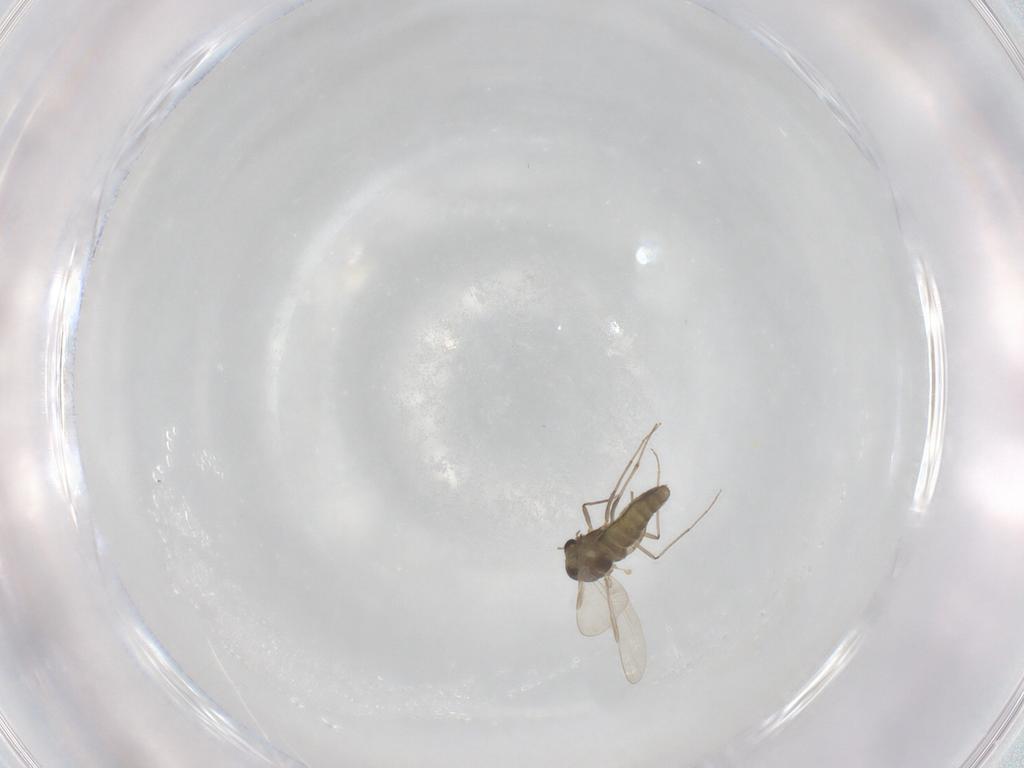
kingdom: Animalia
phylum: Arthropoda
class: Insecta
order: Diptera
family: Chironomidae
